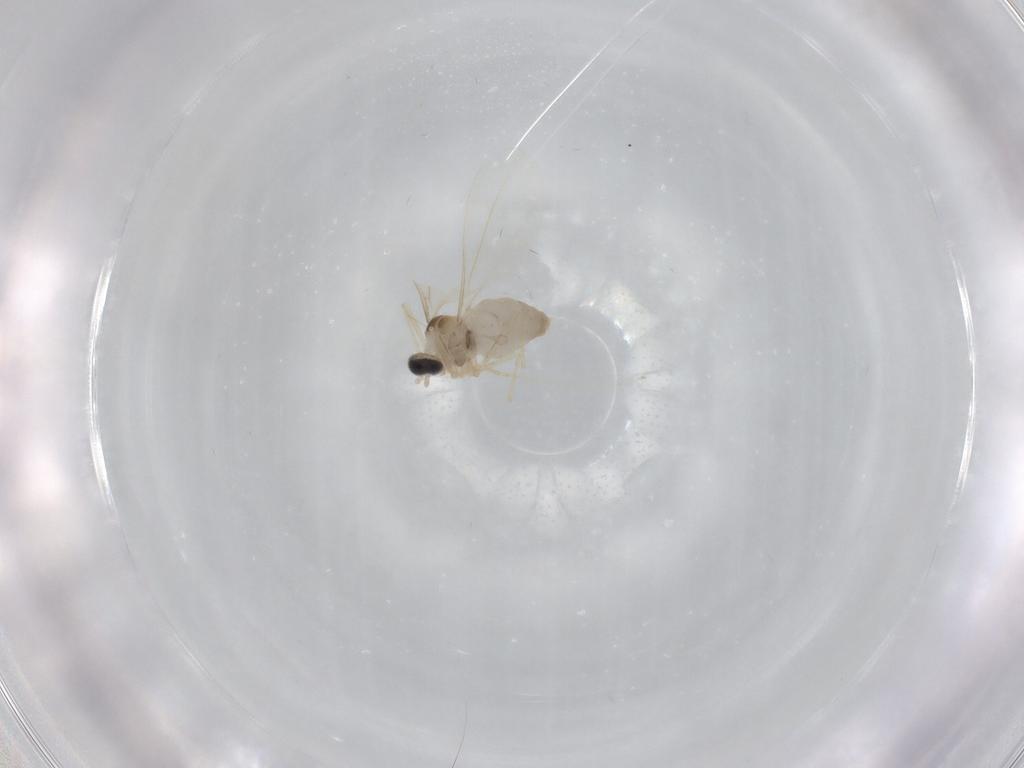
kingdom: Animalia
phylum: Arthropoda
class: Insecta
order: Diptera
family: Cecidomyiidae
